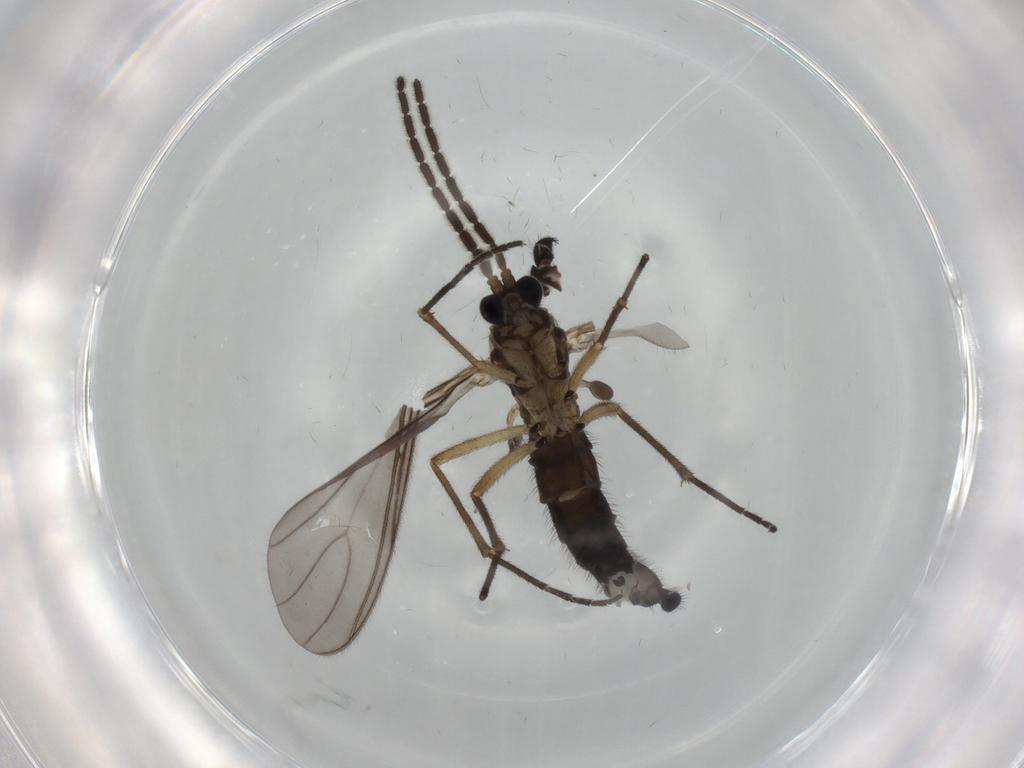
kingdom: Animalia
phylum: Arthropoda
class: Insecta
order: Diptera
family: Sciaridae
